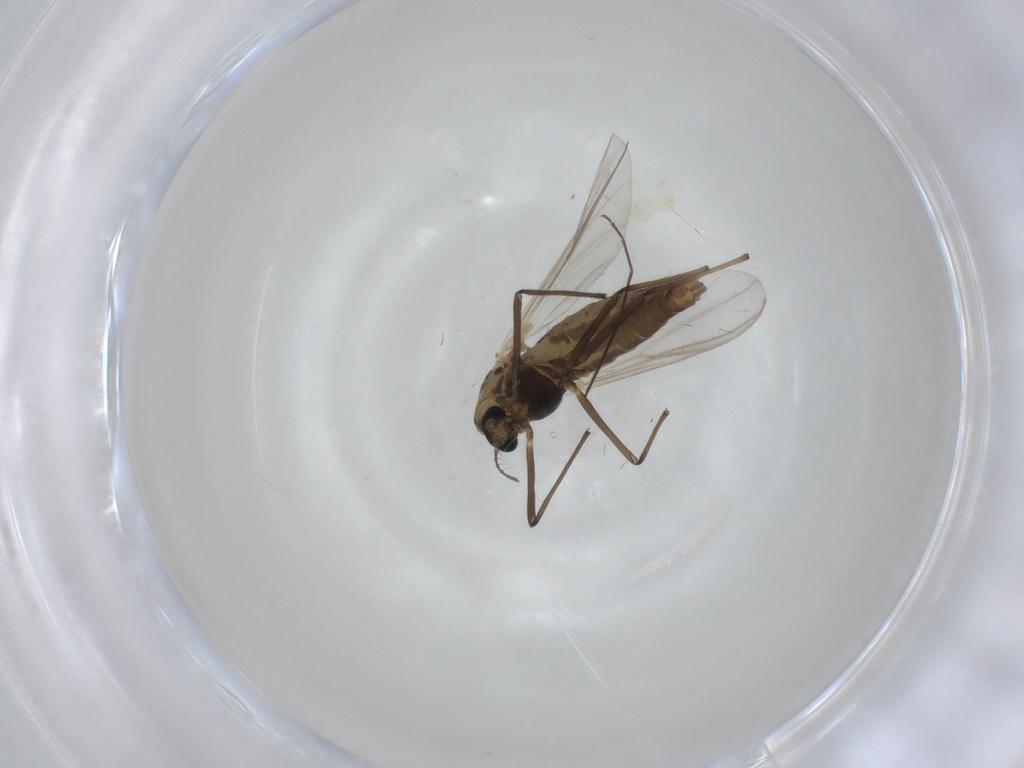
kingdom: Animalia
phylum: Arthropoda
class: Insecta
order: Diptera
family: Chironomidae
